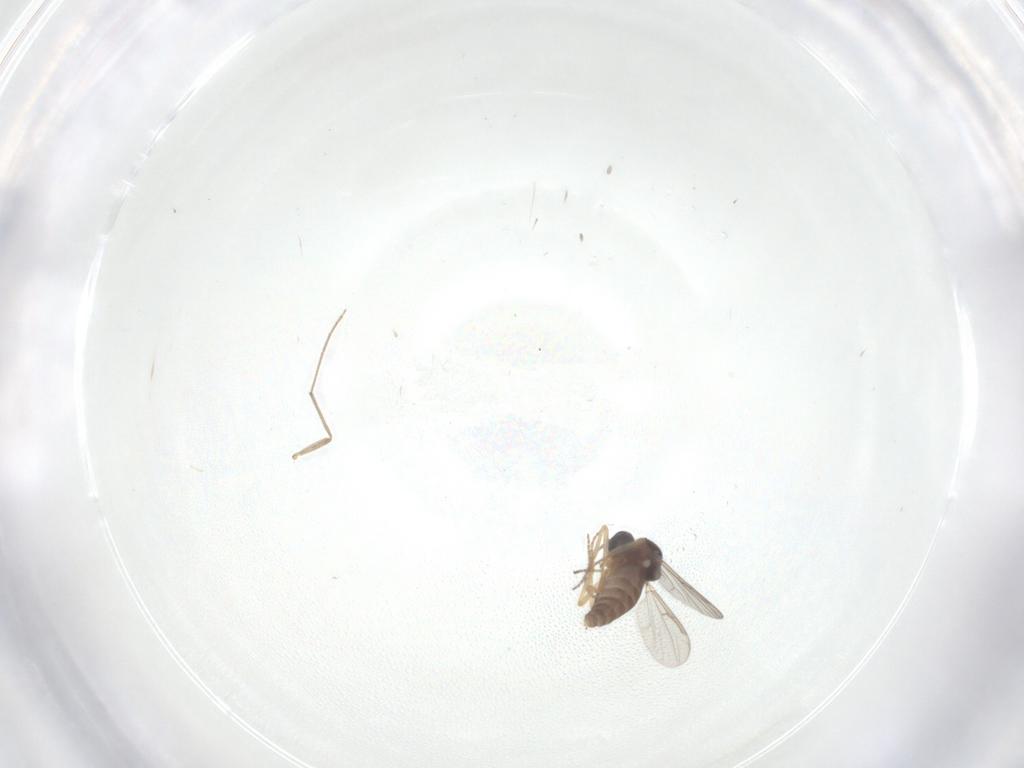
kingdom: Animalia
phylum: Arthropoda
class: Insecta
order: Diptera
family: Ceratopogonidae
